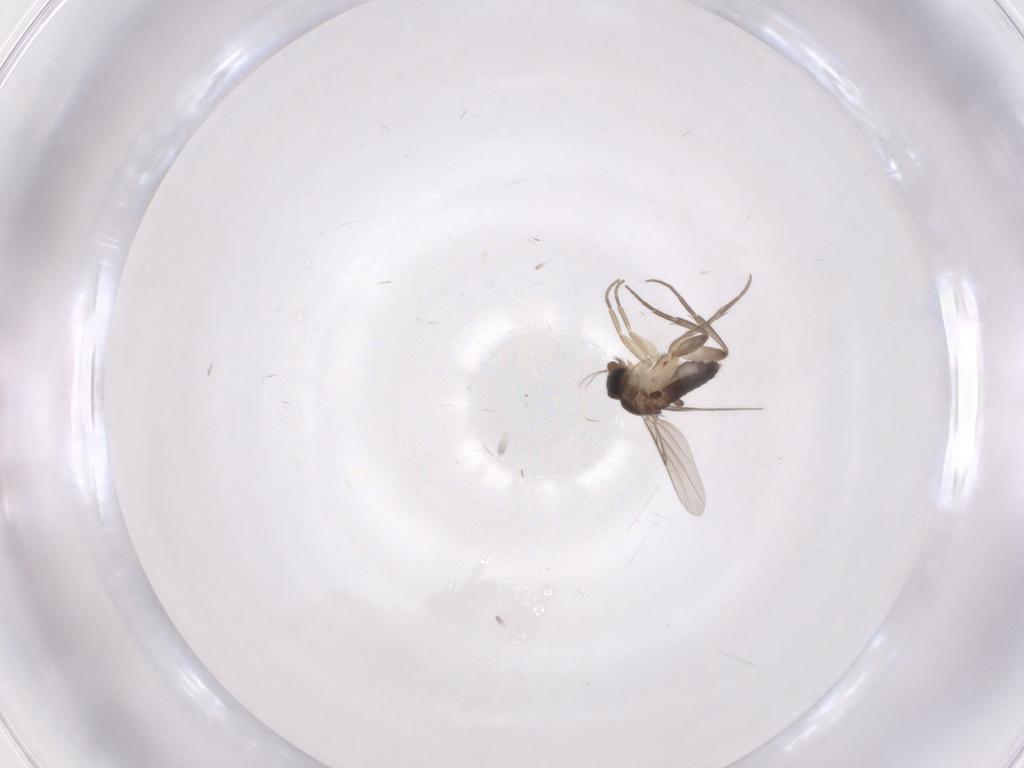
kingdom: Animalia
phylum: Arthropoda
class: Insecta
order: Diptera
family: Phoridae
